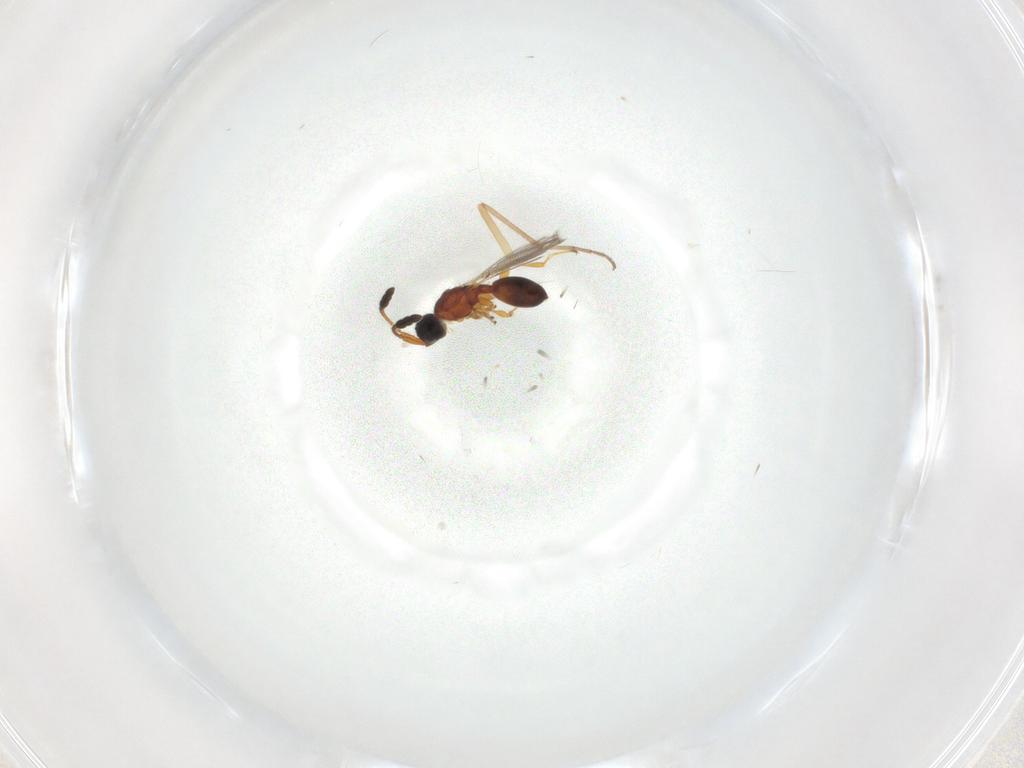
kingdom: Animalia
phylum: Arthropoda
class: Insecta
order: Hymenoptera
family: Diapriidae
